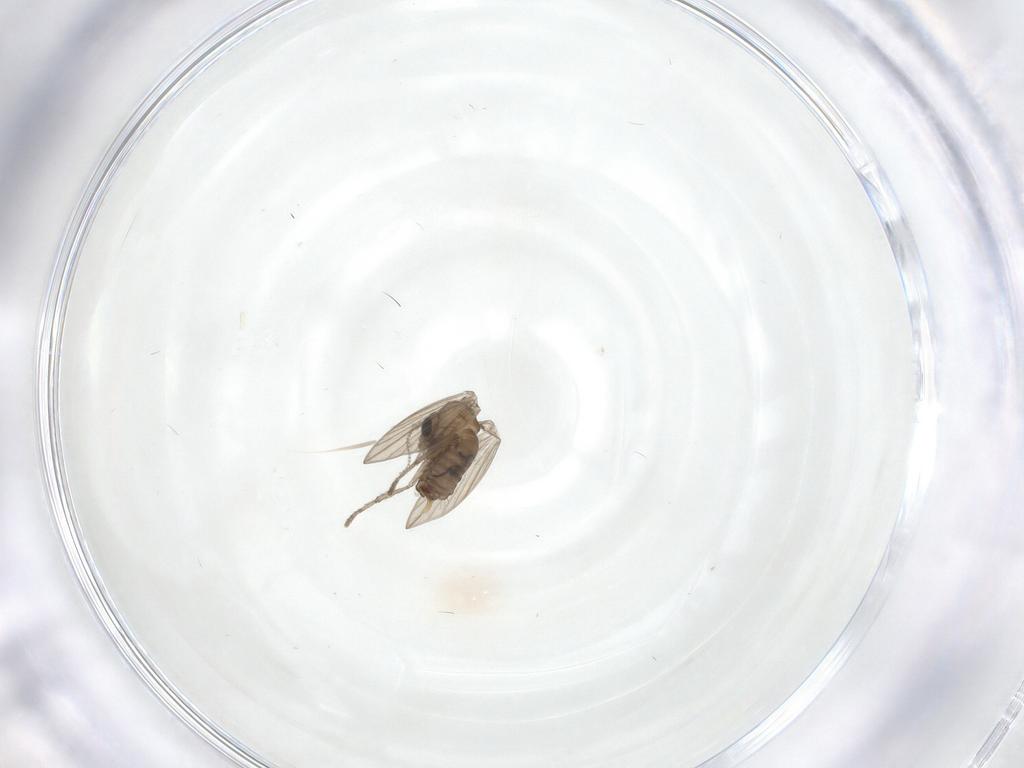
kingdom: Animalia
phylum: Arthropoda
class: Insecta
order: Diptera
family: Psychodidae
